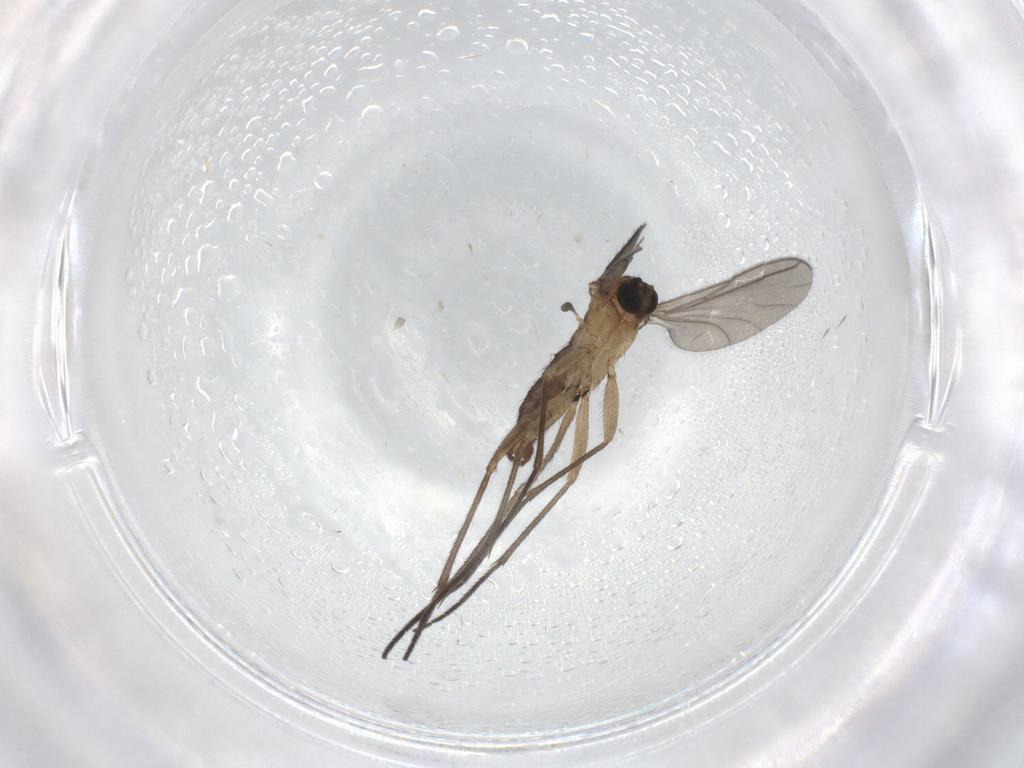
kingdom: Animalia
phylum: Arthropoda
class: Insecta
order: Diptera
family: Sciaridae
